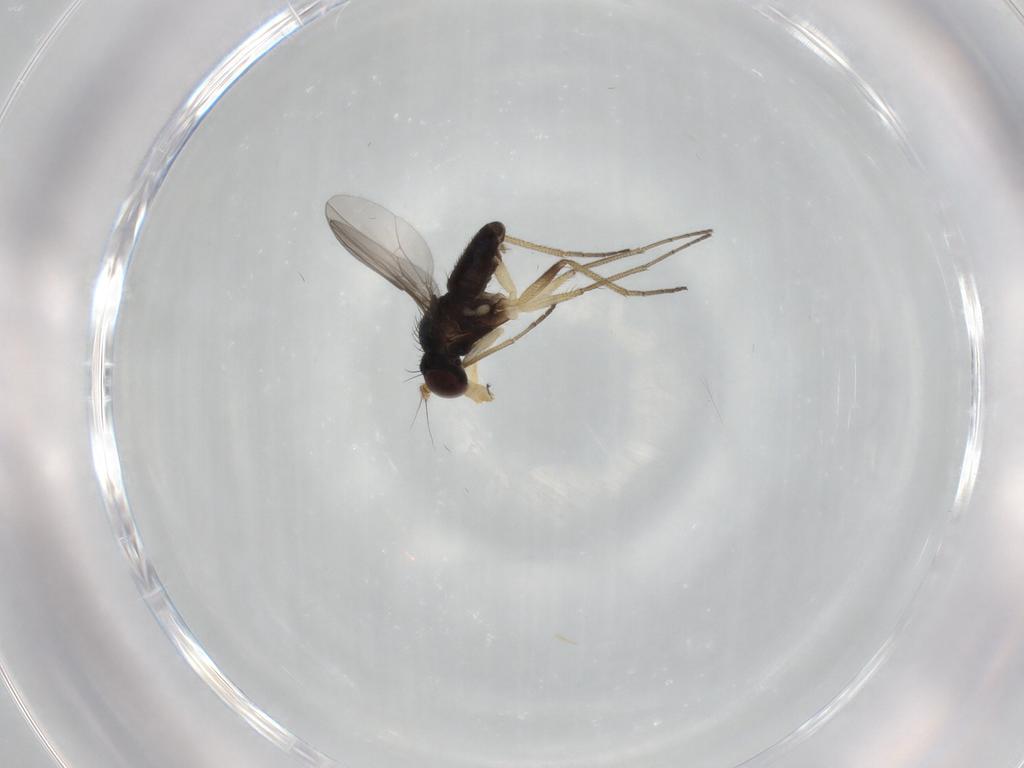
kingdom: Animalia
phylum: Arthropoda
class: Insecta
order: Diptera
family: Dolichopodidae
